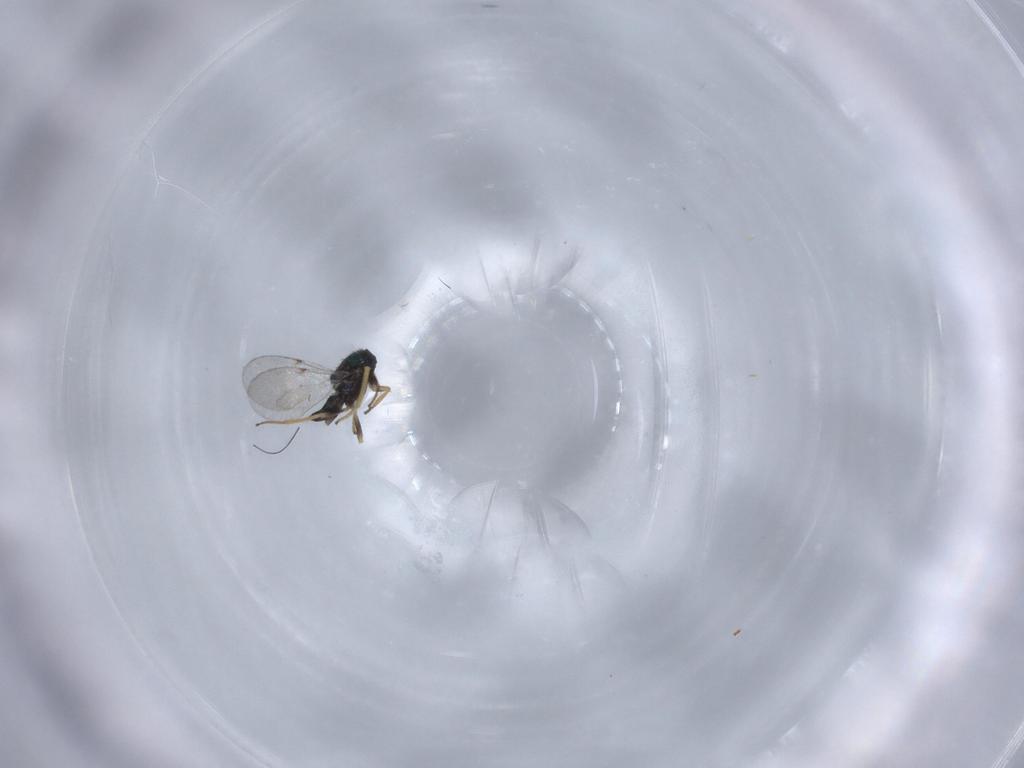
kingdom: Animalia
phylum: Arthropoda
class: Insecta
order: Hymenoptera
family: Encyrtidae
